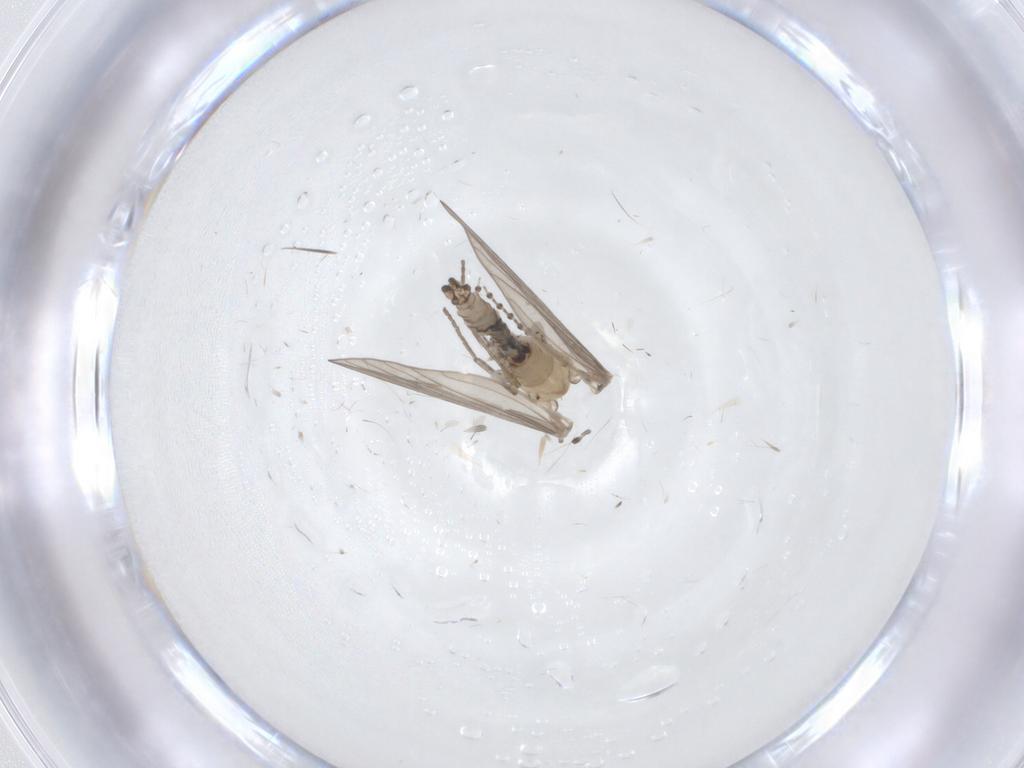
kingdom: Animalia
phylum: Arthropoda
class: Insecta
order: Diptera
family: Psychodidae
